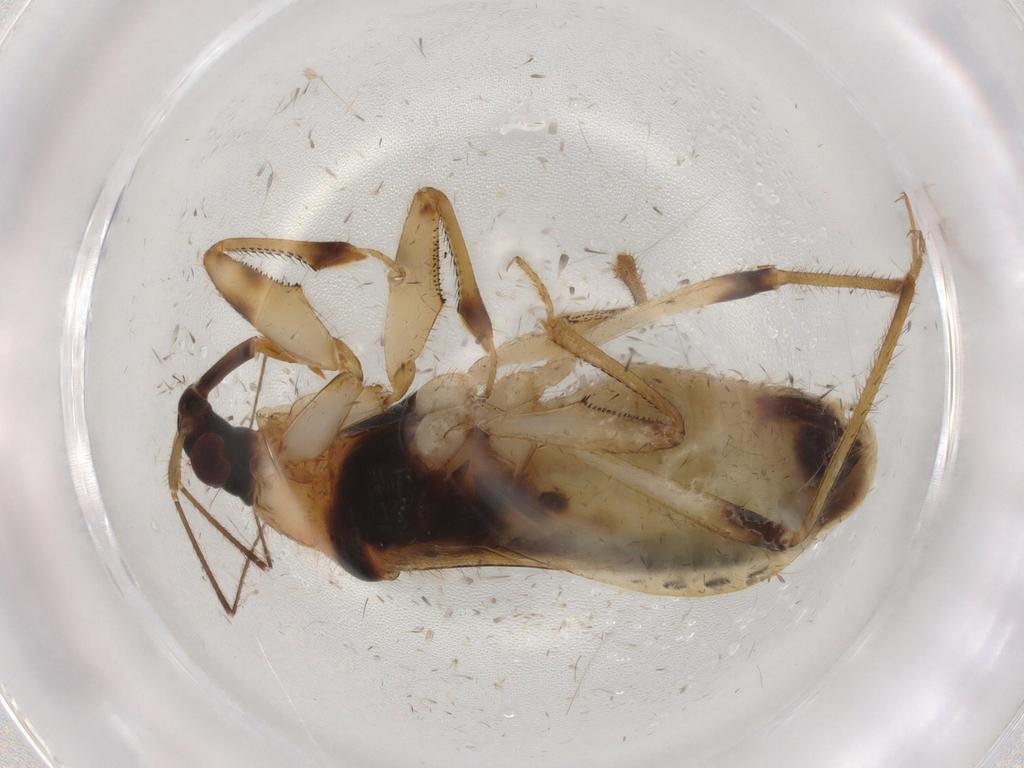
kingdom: Animalia
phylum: Arthropoda
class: Insecta
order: Hemiptera
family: Nabidae
